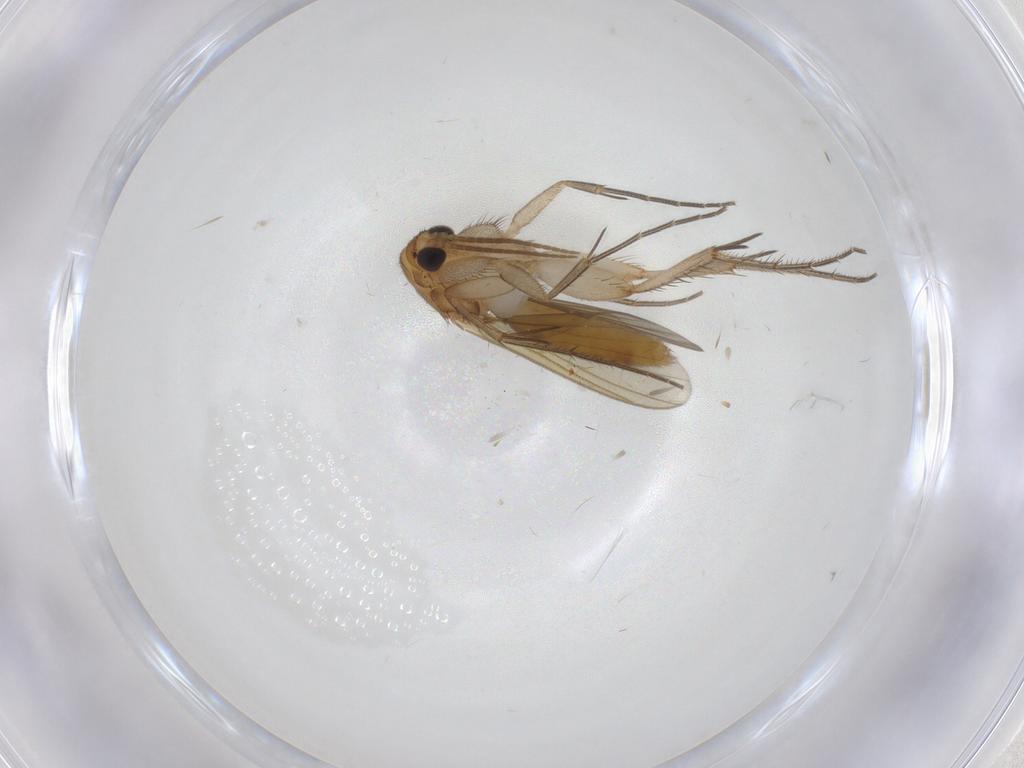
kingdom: Animalia
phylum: Arthropoda
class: Insecta
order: Diptera
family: Mycetophilidae
